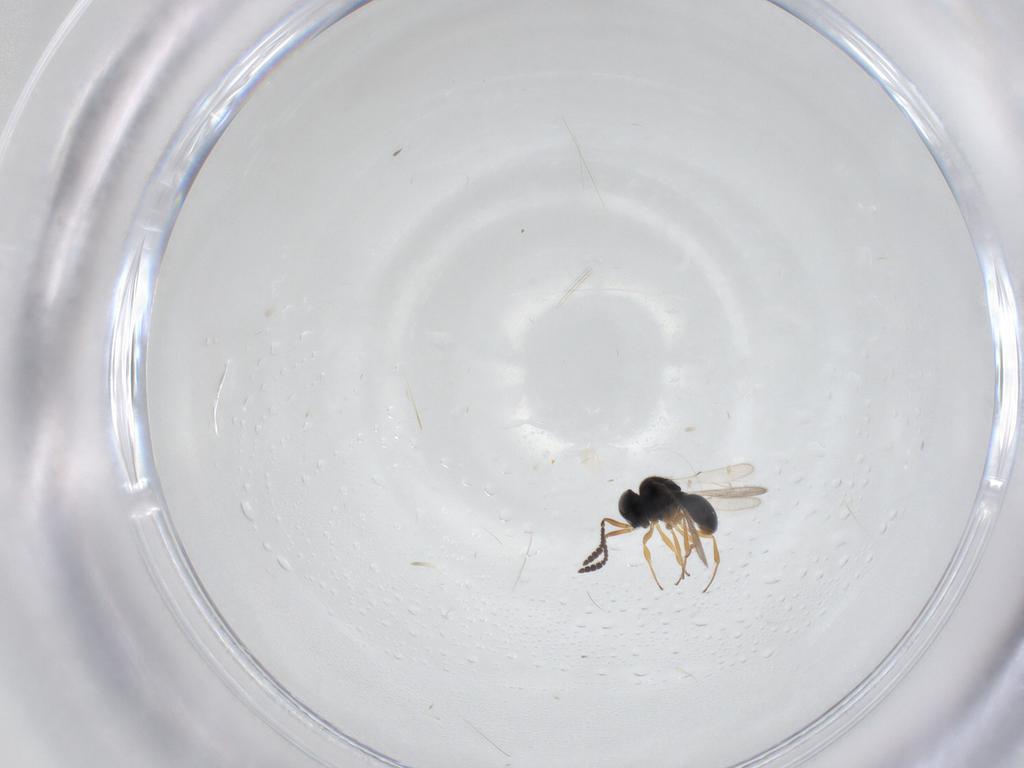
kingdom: Animalia
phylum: Arthropoda
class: Insecta
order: Hymenoptera
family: Scelionidae
